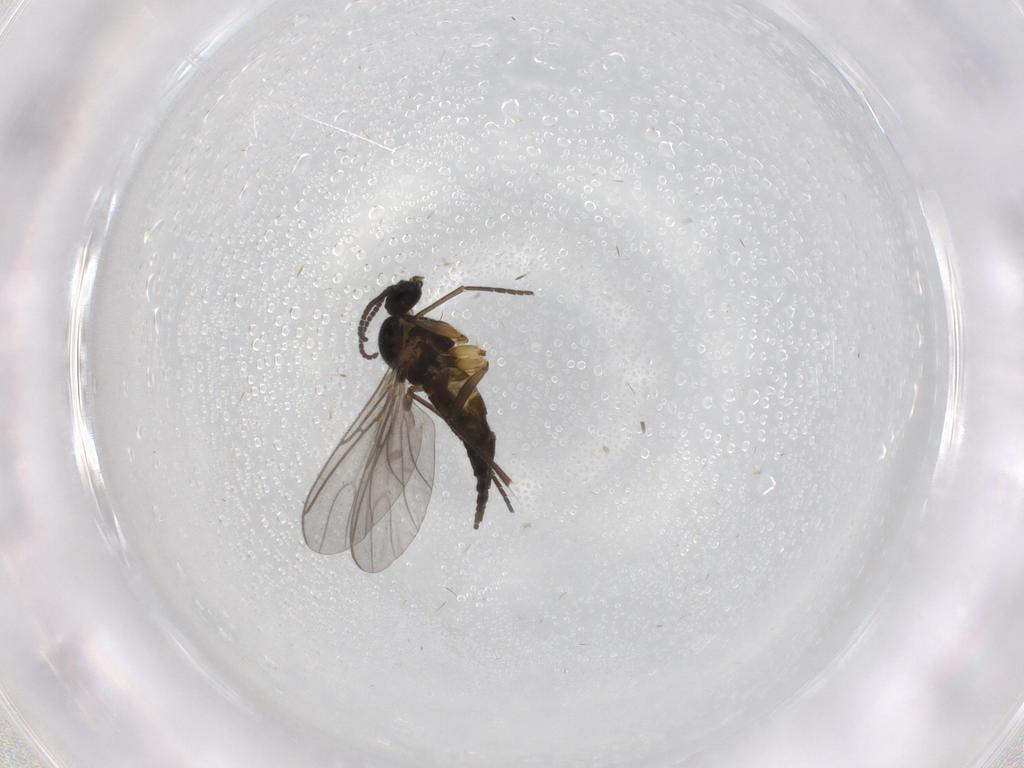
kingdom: Animalia
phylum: Arthropoda
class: Insecta
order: Diptera
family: Sciaridae
